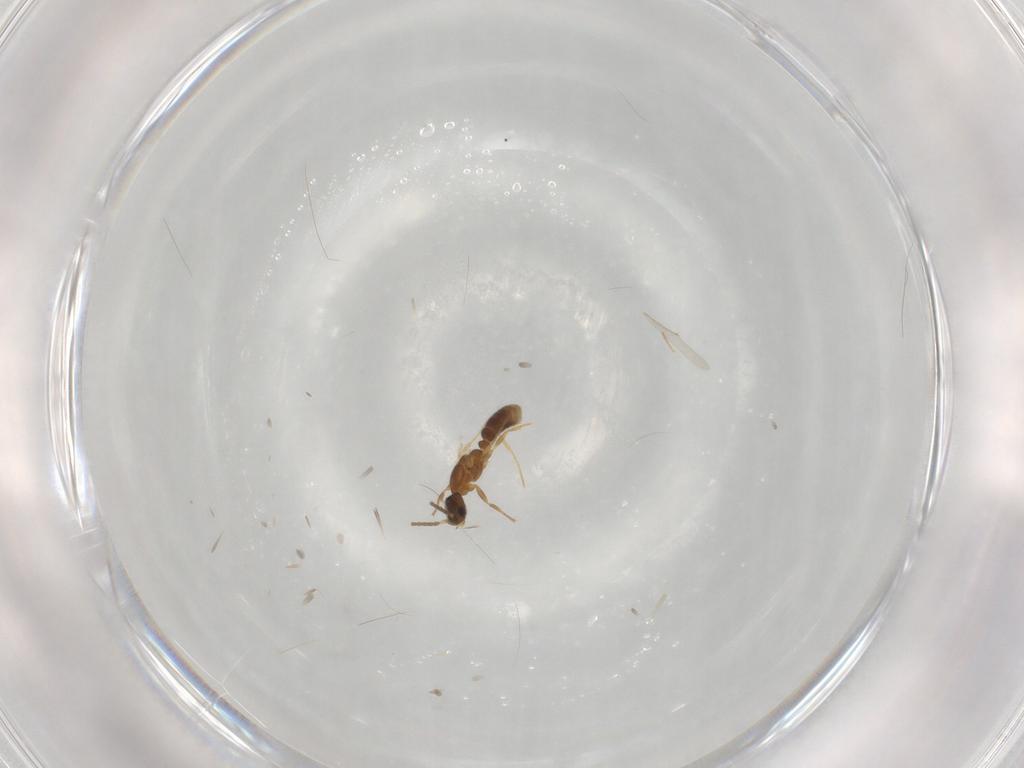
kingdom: Animalia
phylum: Arthropoda
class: Insecta
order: Hymenoptera
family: Formicidae
